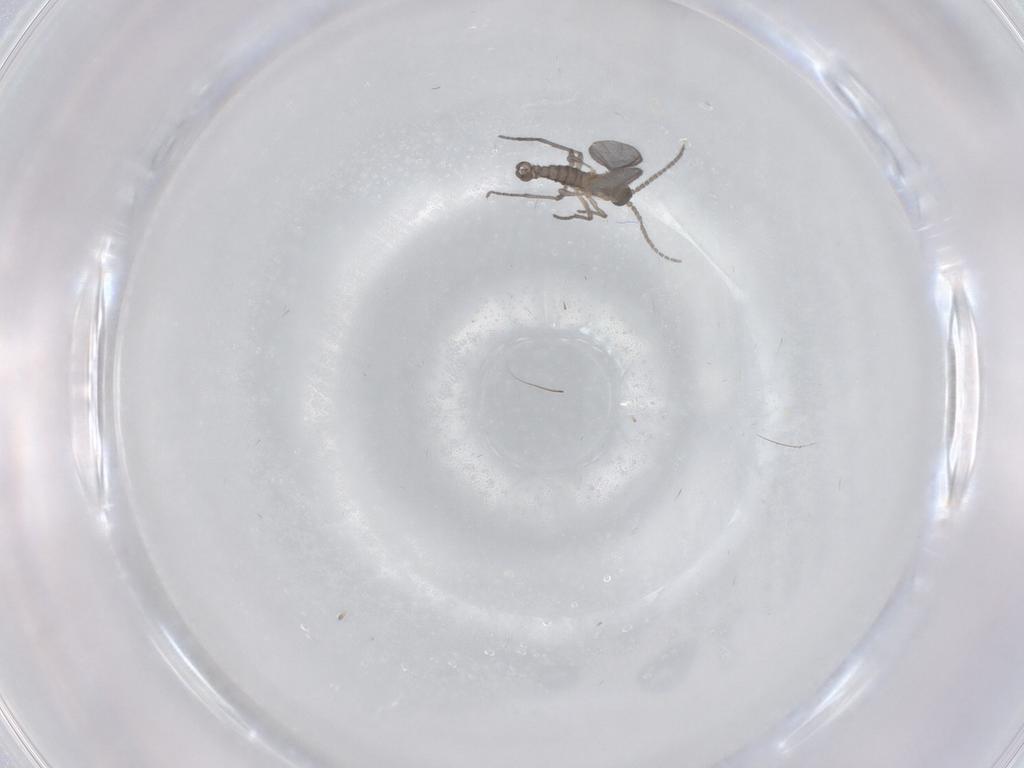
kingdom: Animalia
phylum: Arthropoda
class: Insecta
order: Diptera
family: Sciaridae
